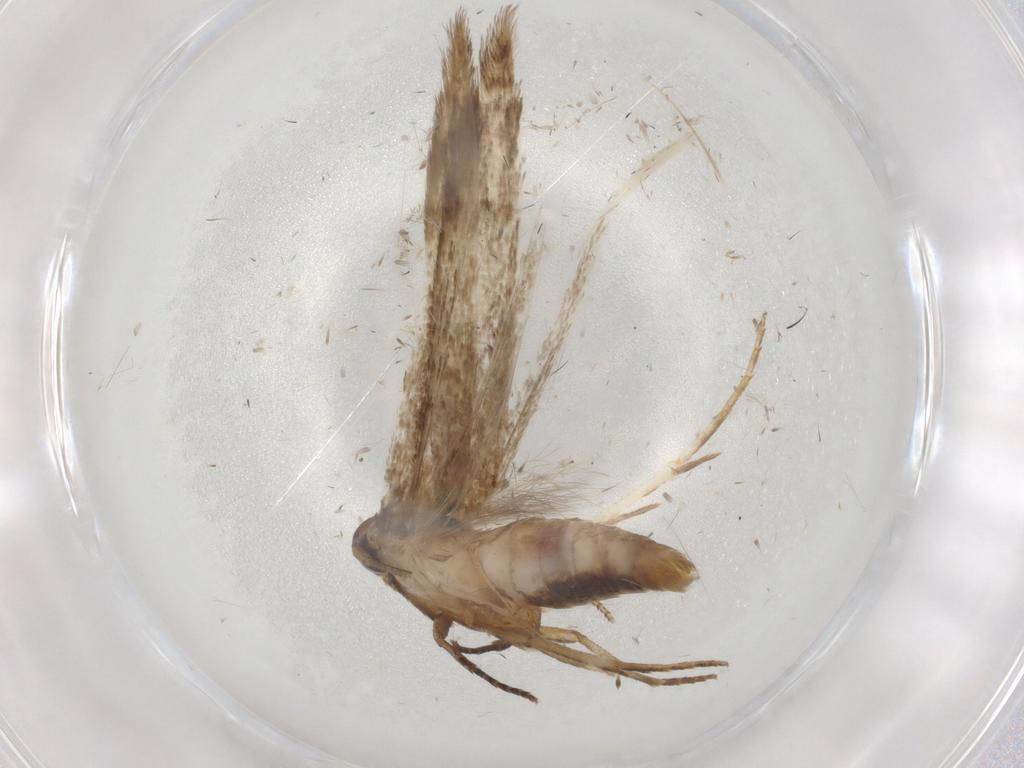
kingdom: Animalia
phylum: Arthropoda
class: Insecta
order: Lepidoptera
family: Cosmopterigidae
